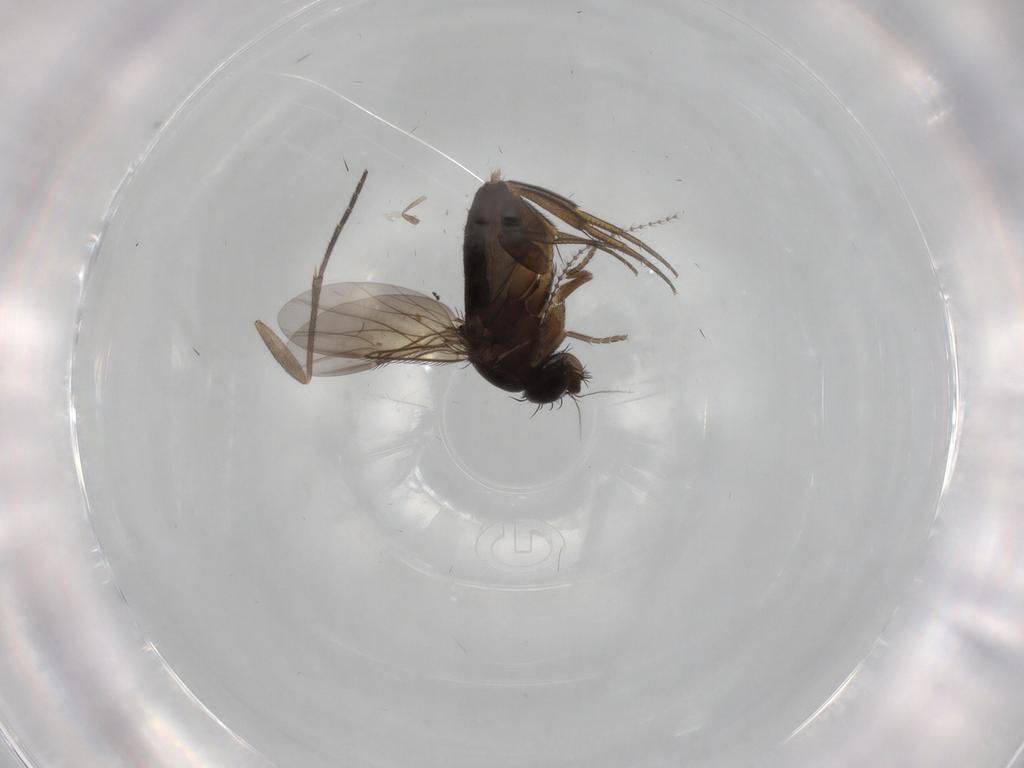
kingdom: Animalia
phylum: Arthropoda
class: Insecta
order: Diptera
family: Phoridae
